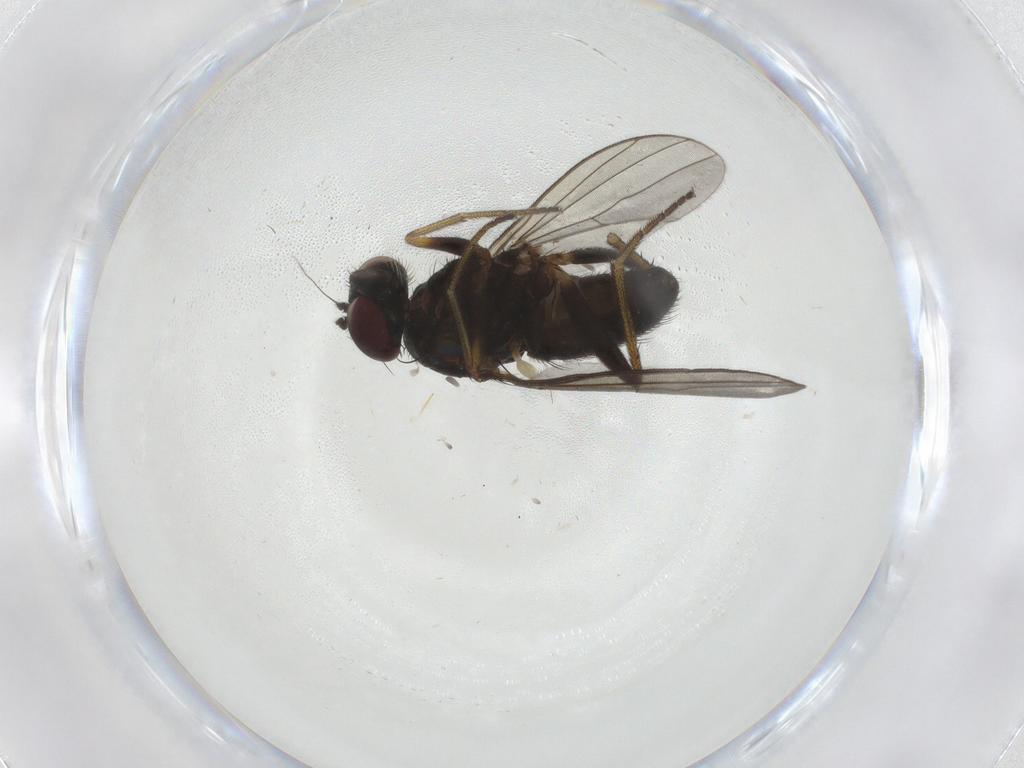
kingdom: Animalia
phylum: Arthropoda
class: Insecta
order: Diptera
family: Dolichopodidae
